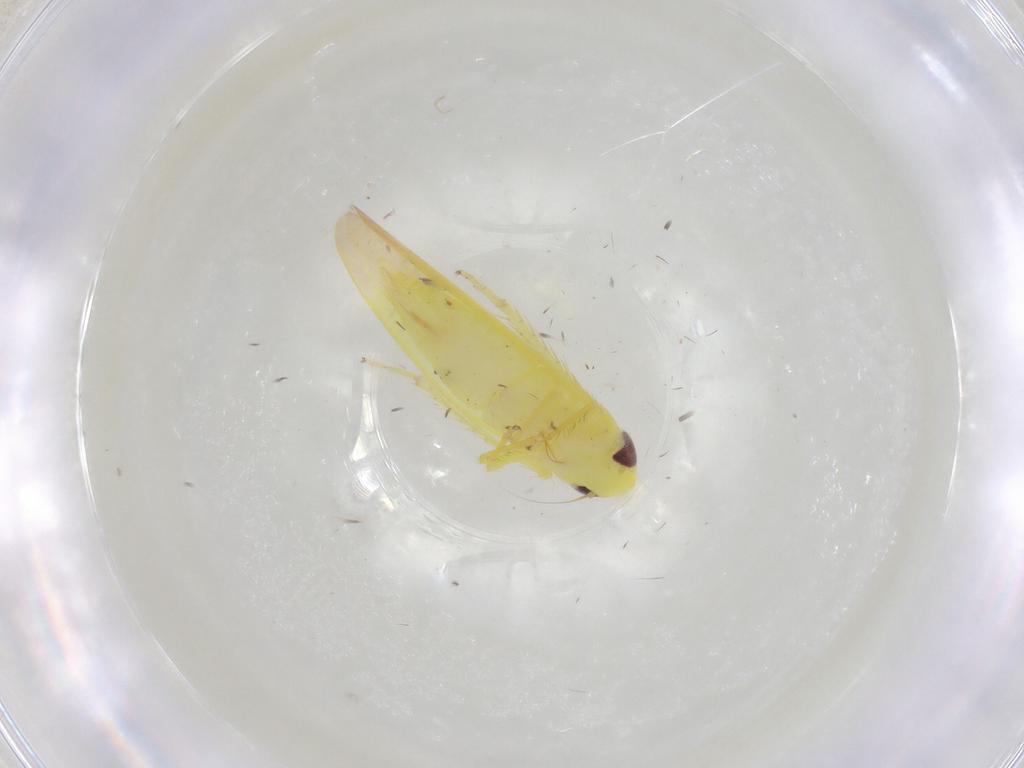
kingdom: Animalia
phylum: Arthropoda
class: Insecta
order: Hemiptera
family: Cicadellidae
